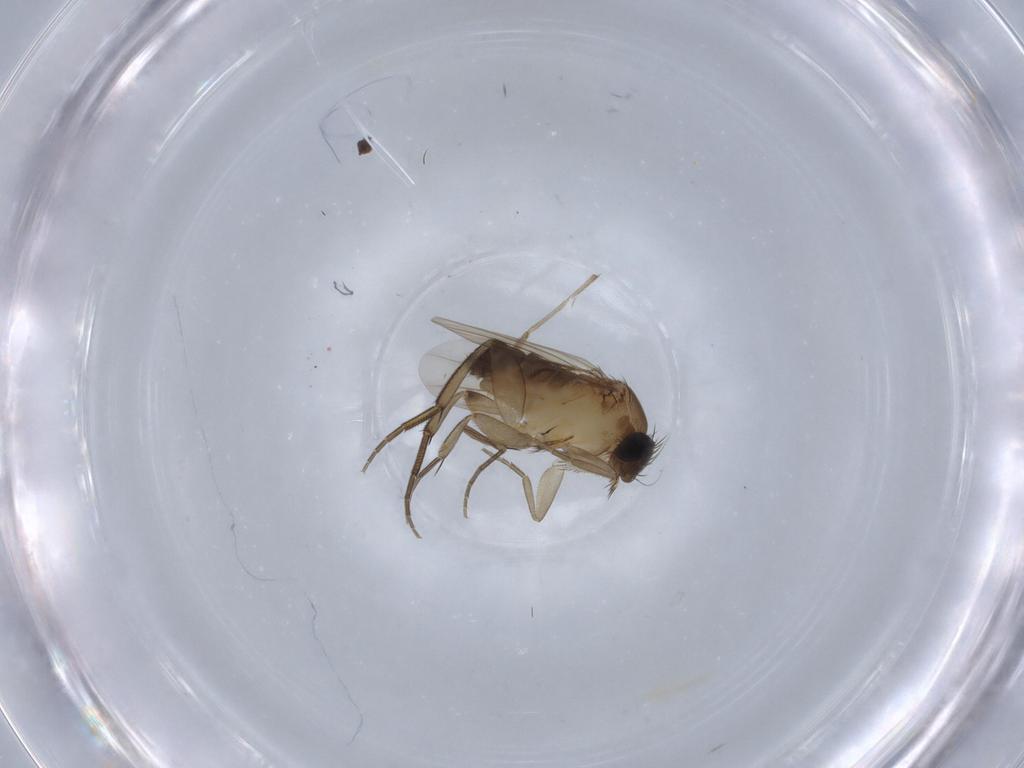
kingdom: Animalia
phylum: Arthropoda
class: Insecta
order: Diptera
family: Phoridae
